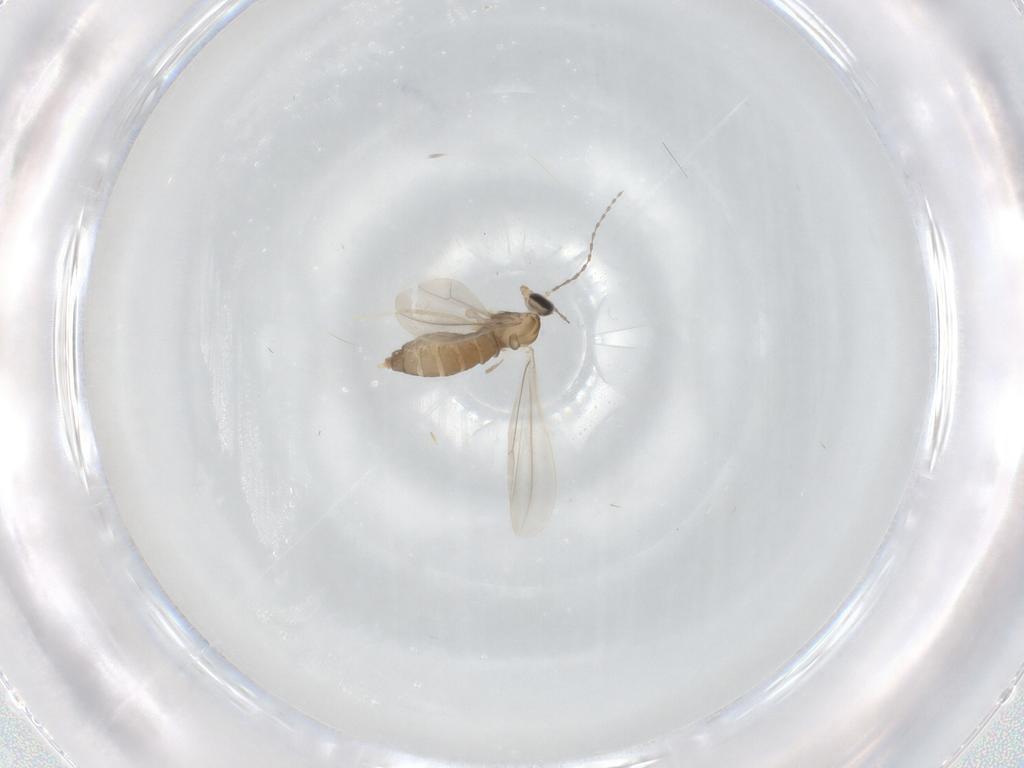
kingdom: Animalia
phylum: Arthropoda
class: Insecta
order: Diptera
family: Cecidomyiidae
